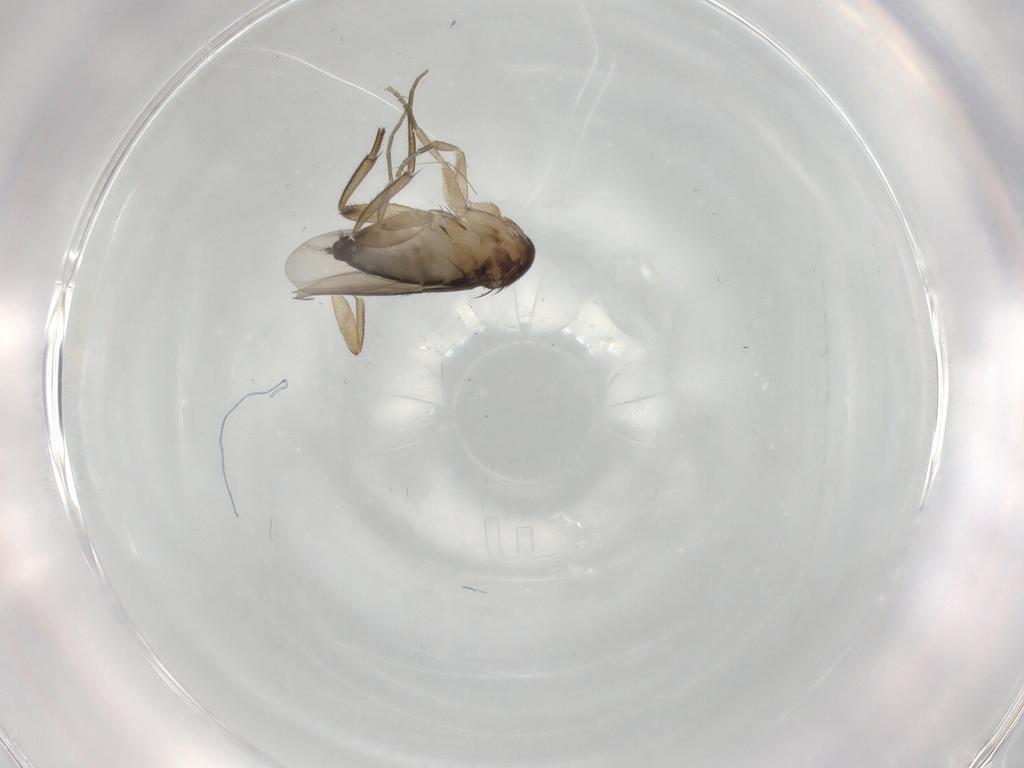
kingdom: Animalia
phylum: Arthropoda
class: Insecta
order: Diptera
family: Phoridae
